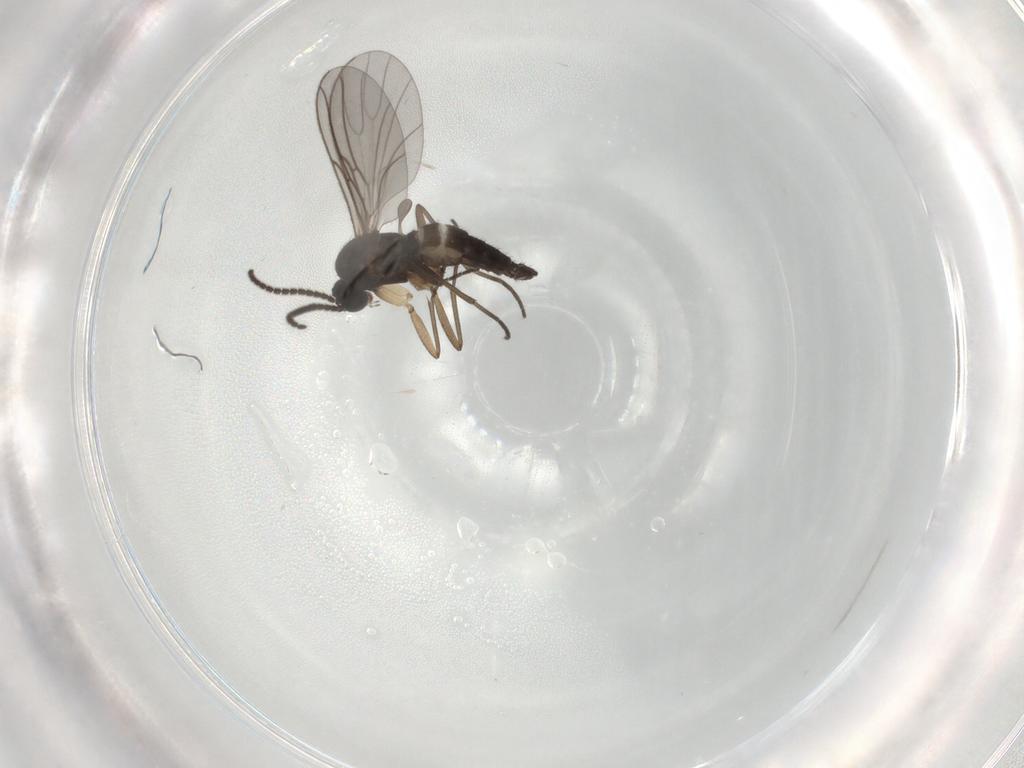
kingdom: Animalia
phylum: Arthropoda
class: Insecta
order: Diptera
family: Sciaridae
